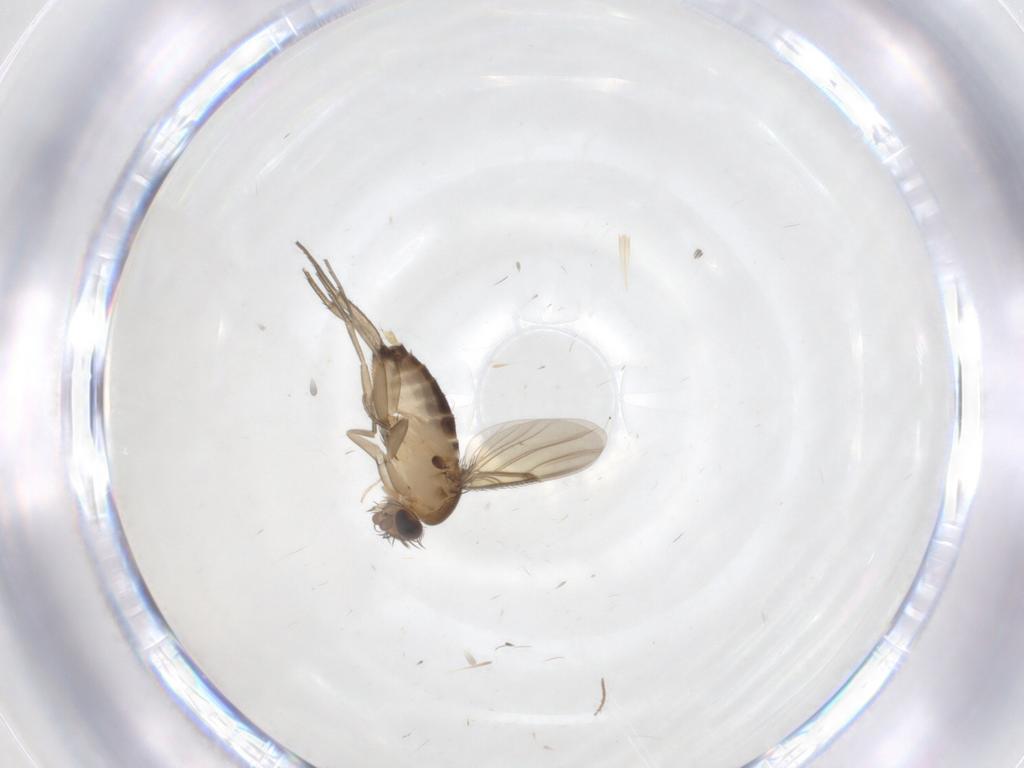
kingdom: Animalia
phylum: Arthropoda
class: Insecta
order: Diptera
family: Phoridae
